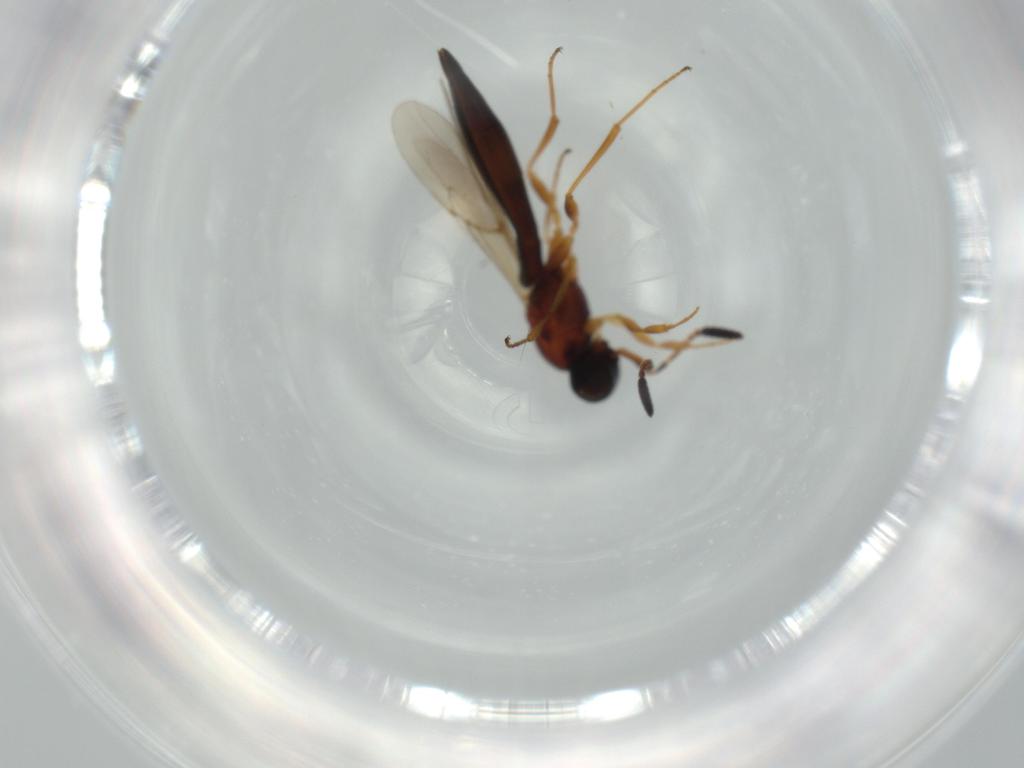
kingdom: Animalia
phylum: Arthropoda
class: Insecta
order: Hymenoptera
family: Scelionidae
